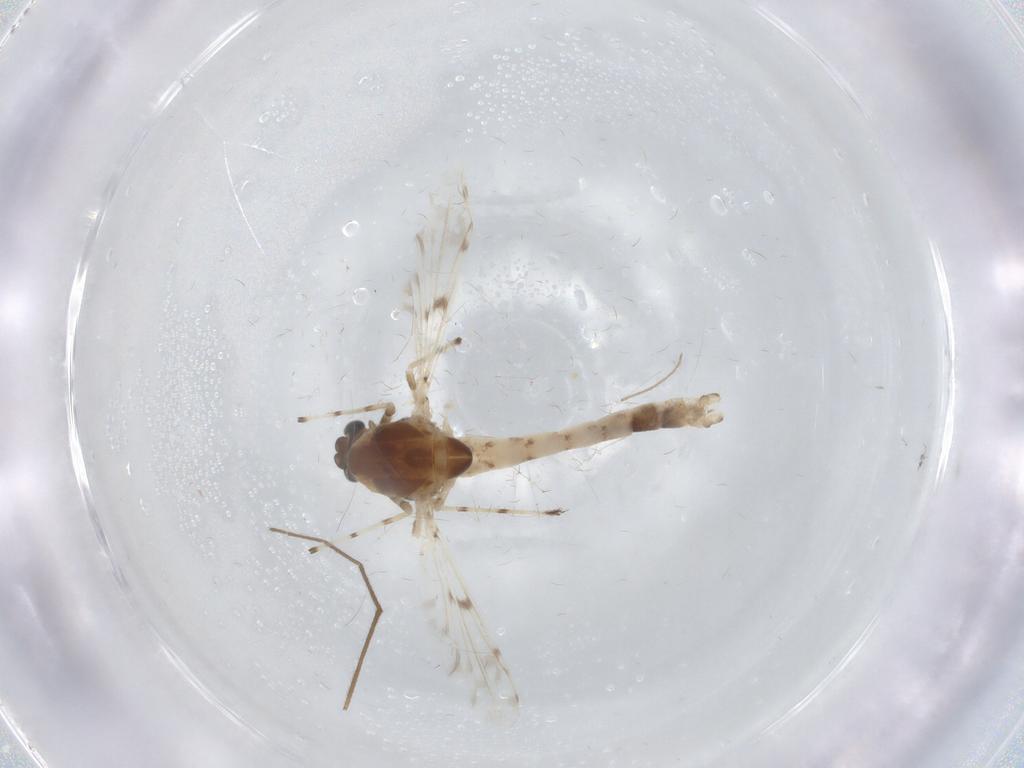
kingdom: Animalia
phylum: Arthropoda
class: Insecta
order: Diptera
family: Chironomidae
